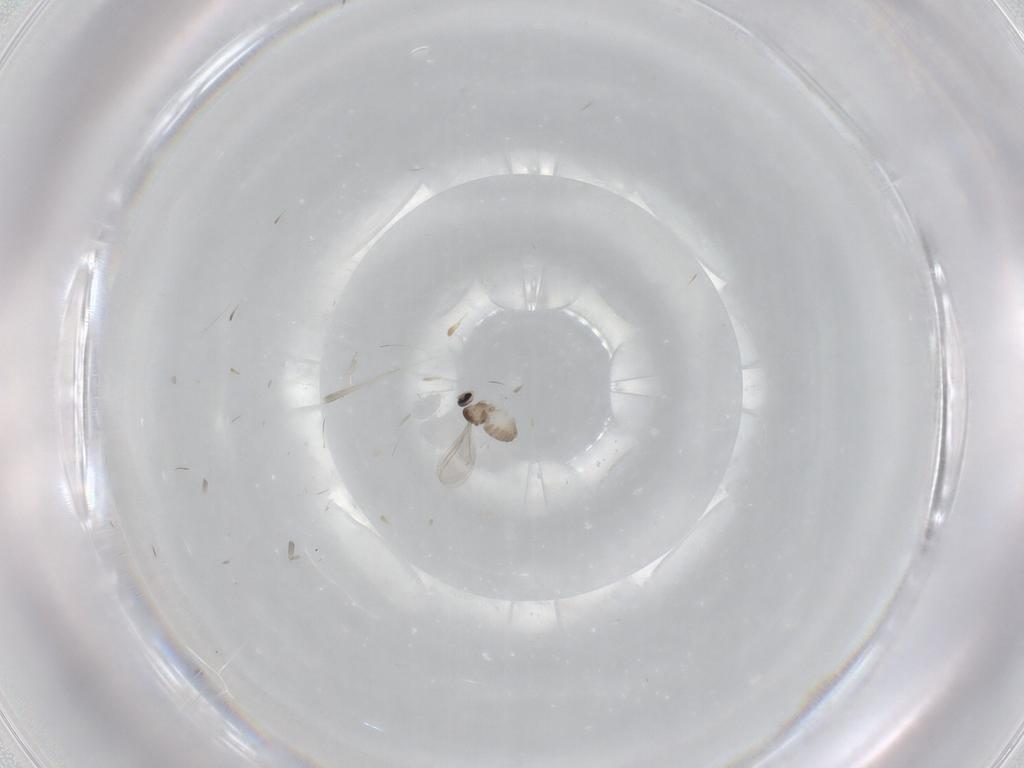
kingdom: Animalia
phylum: Arthropoda
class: Insecta
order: Diptera
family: Cecidomyiidae
